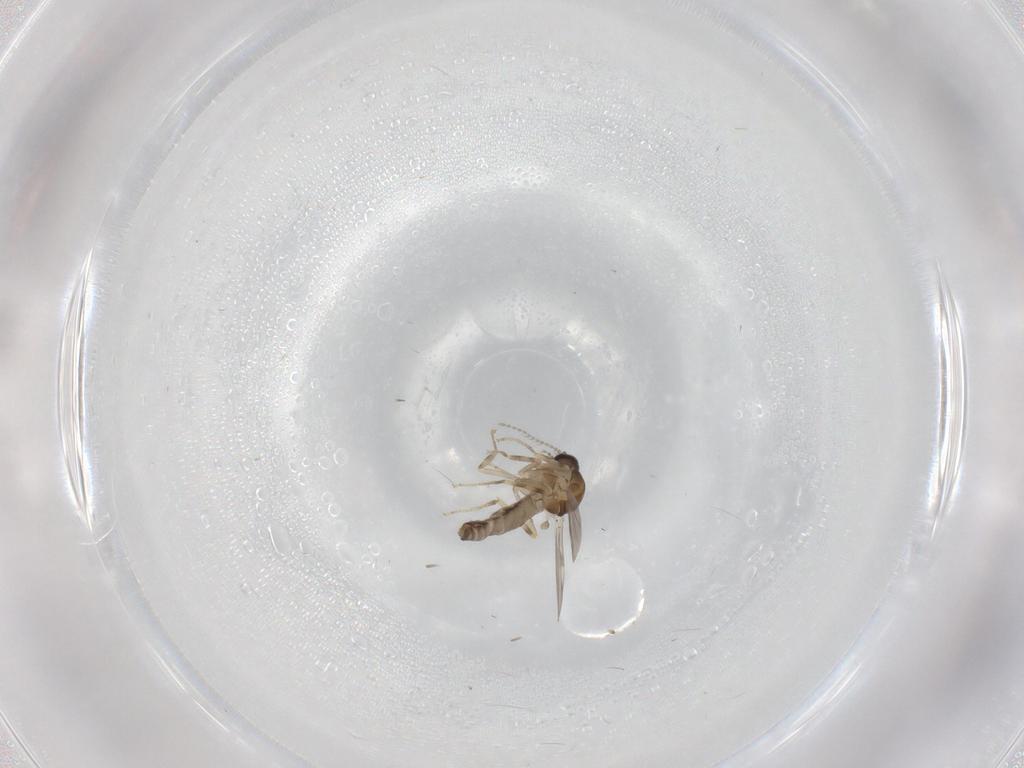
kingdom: Animalia
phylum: Arthropoda
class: Insecta
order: Diptera
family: Ceratopogonidae
